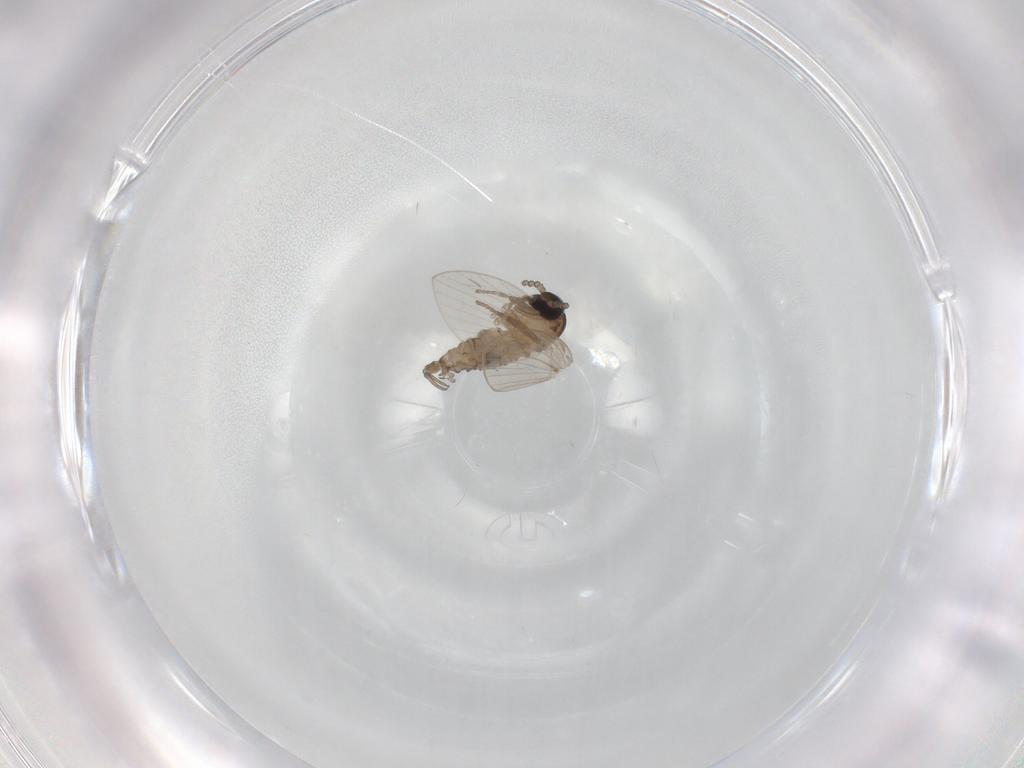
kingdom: Animalia
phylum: Arthropoda
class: Insecta
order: Diptera
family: Psychodidae
